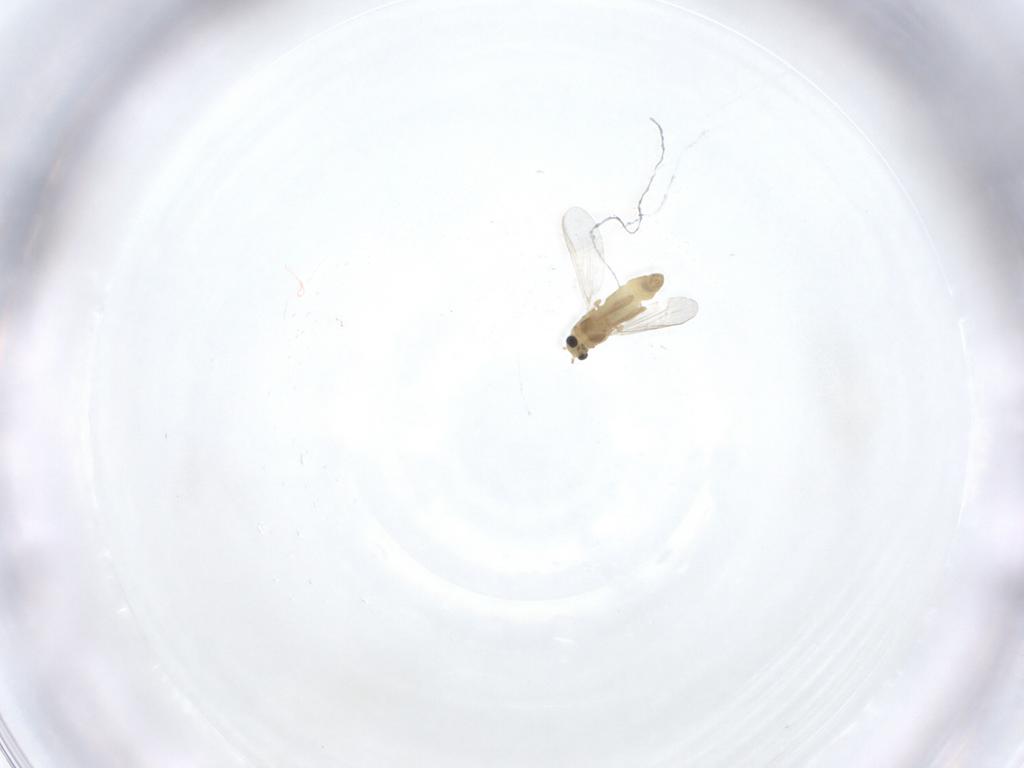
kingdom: Animalia
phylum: Arthropoda
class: Insecta
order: Diptera
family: Chironomidae
